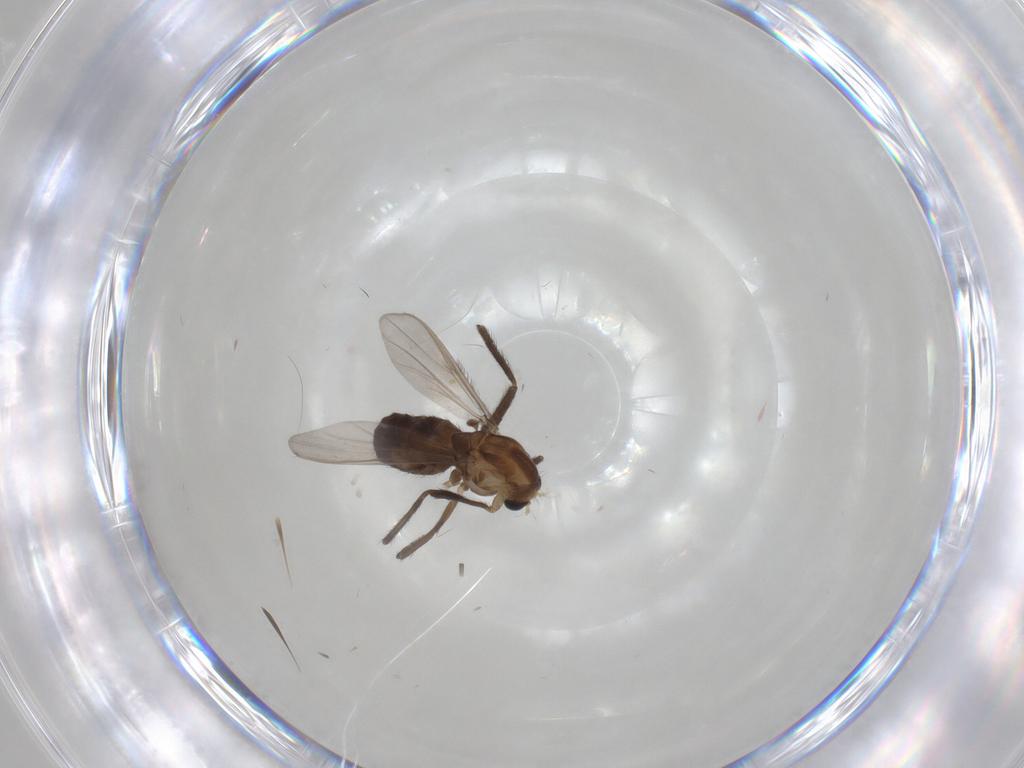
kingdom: Animalia
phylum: Arthropoda
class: Insecta
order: Diptera
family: Chironomidae
